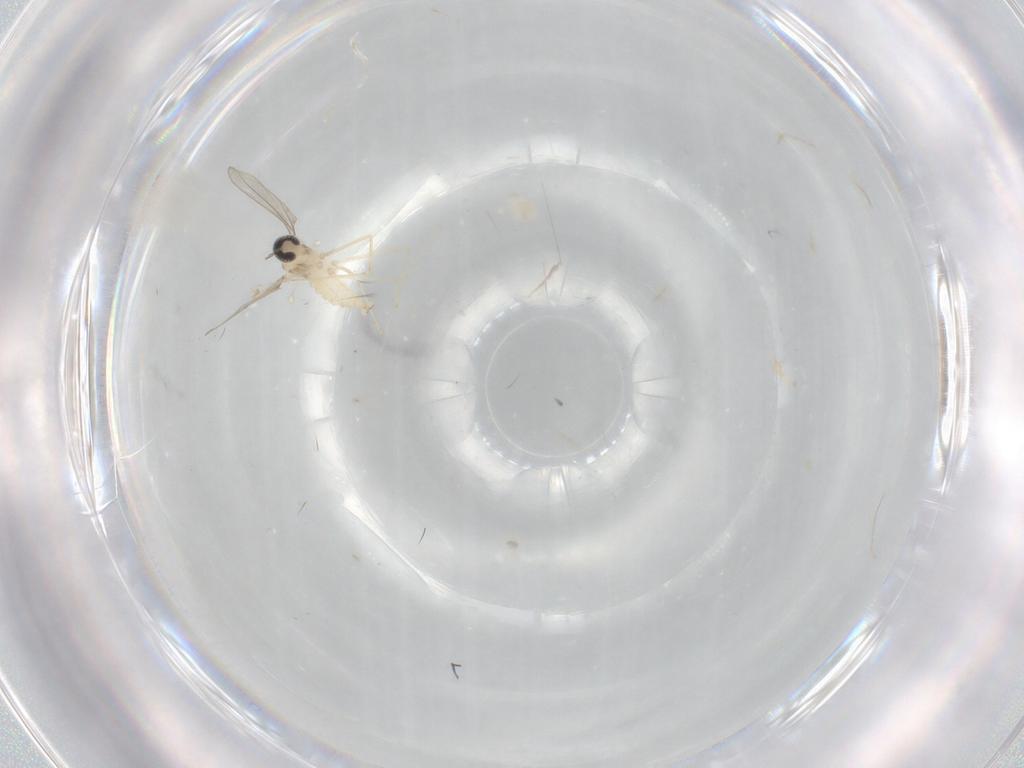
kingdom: Animalia
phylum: Arthropoda
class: Insecta
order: Diptera
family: Cecidomyiidae
